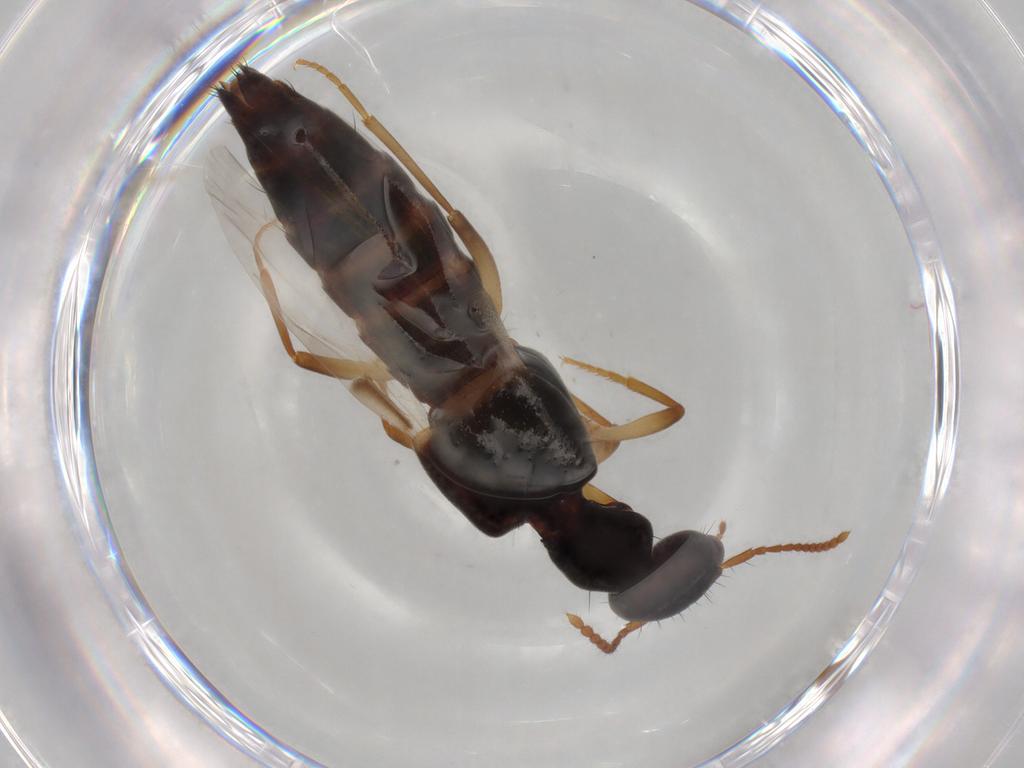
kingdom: Animalia
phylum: Arthropoda
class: Insecta
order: Coleoptera
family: Staphylinidae
